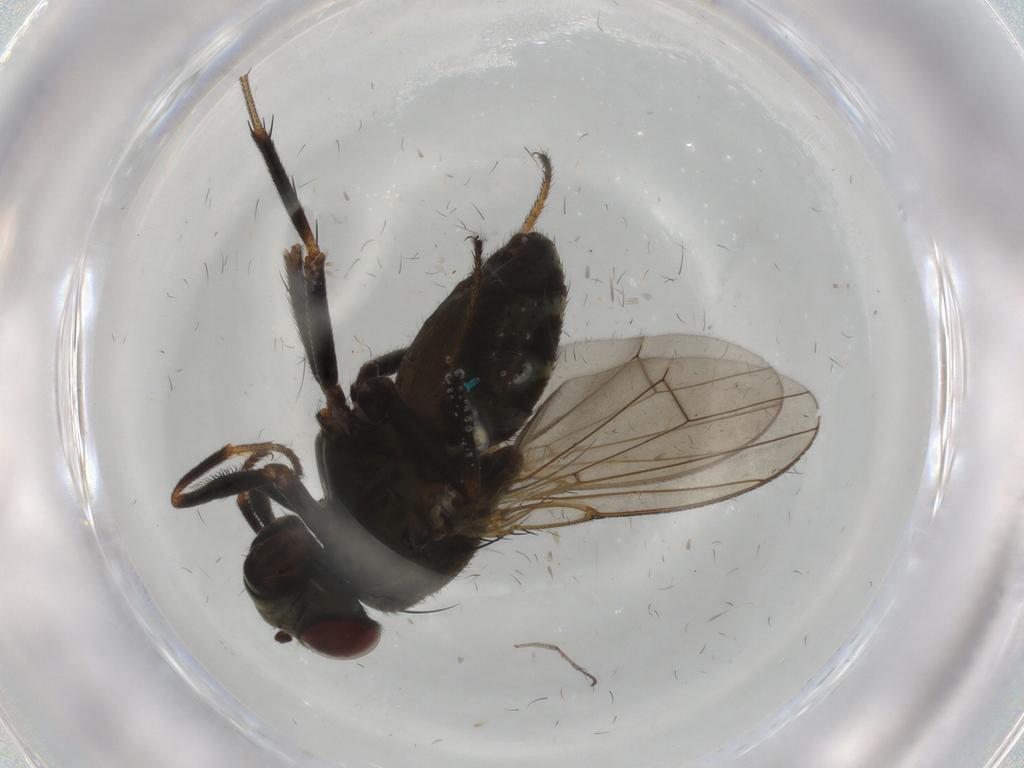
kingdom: Animalia
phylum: Arthropoda
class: Insecta
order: Diptera
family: Ephydridae
